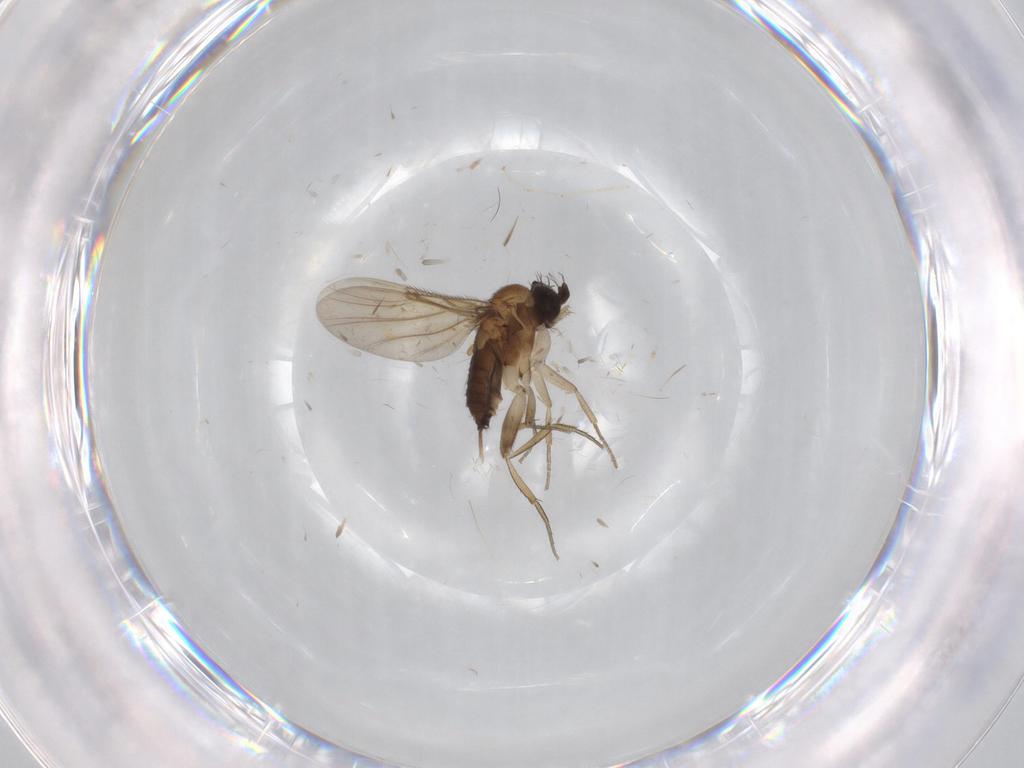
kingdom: Animalia
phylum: Arthropoda
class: Insecta
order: Diptera
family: Phoridae
